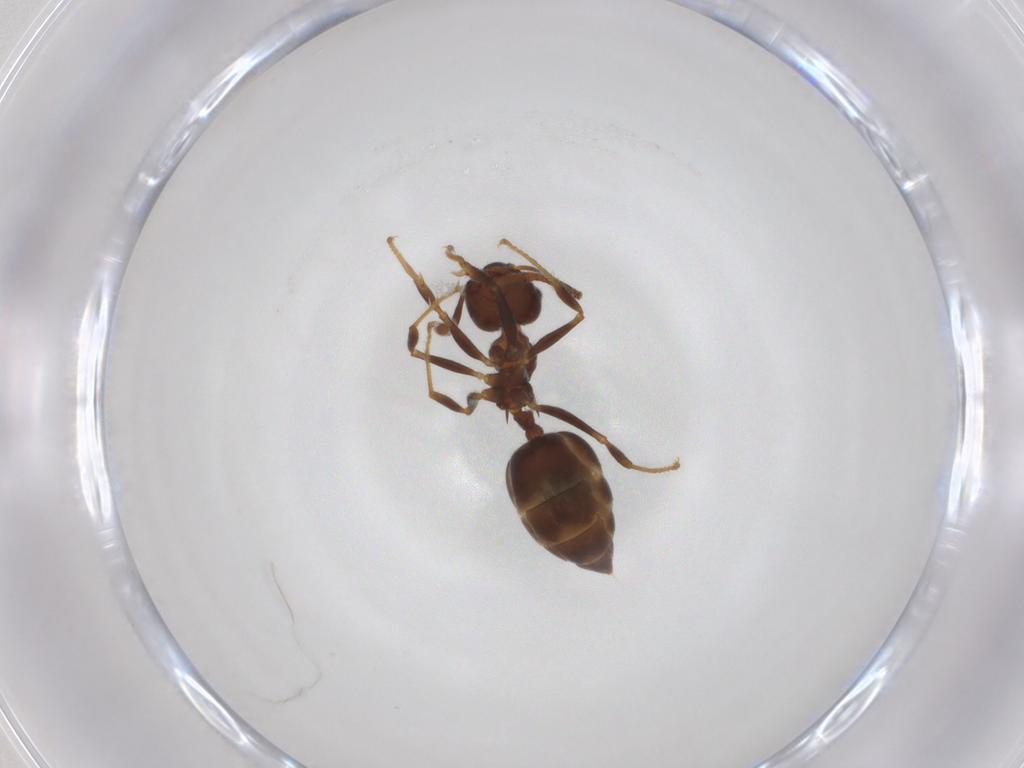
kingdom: Animalia
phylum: Arthropoda
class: Insecta
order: Hymenoptera
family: Formicidae
